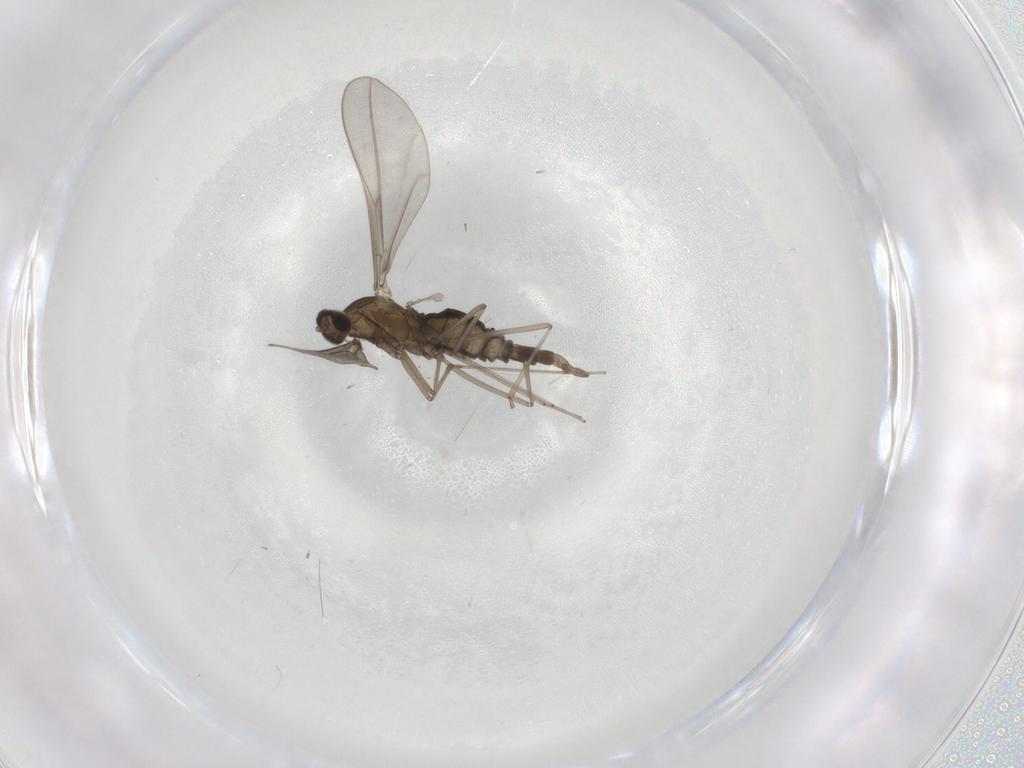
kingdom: Animalia
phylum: Arthropoda
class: Insecta
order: Diptera
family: Cecidomyiidae
